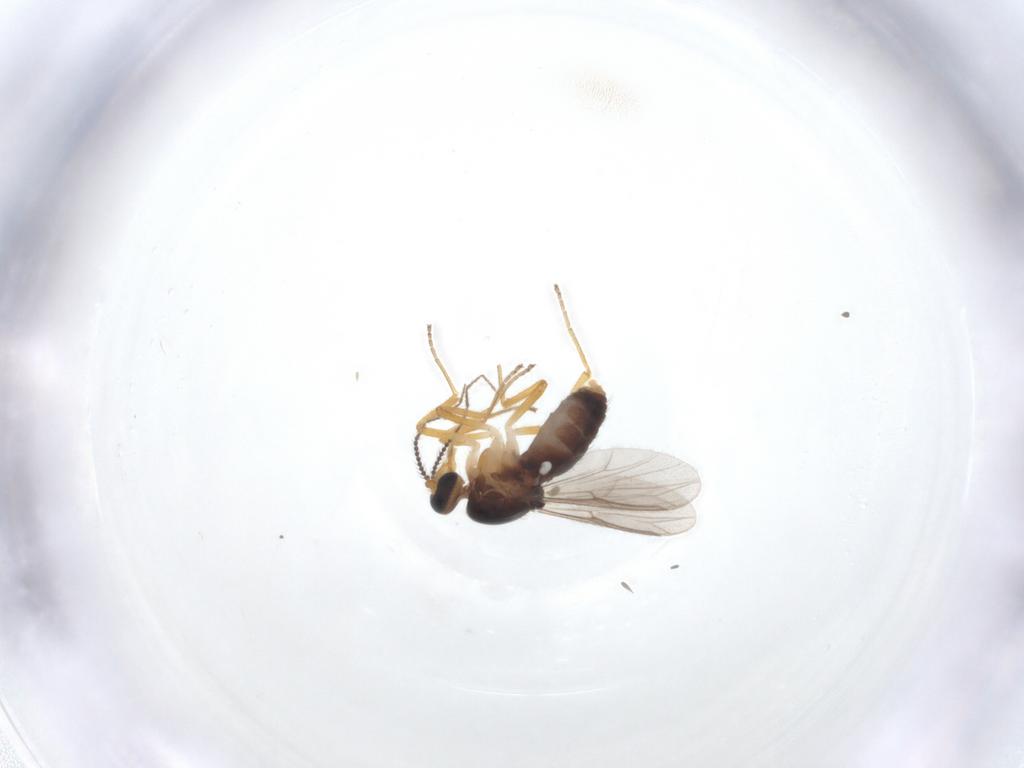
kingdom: Animalia
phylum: Arthropoda
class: Insecta
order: Diptera
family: Ceratopogonidae
